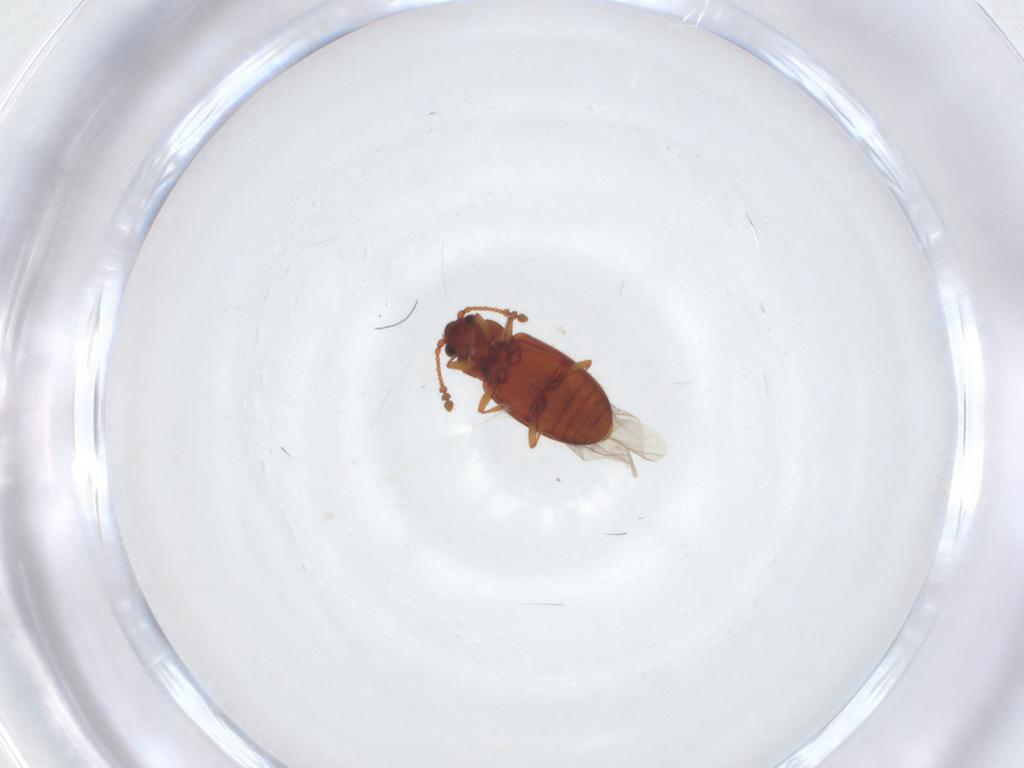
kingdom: Animalia
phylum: Arthropoda
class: Insecta
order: Coleoptera
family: Cryptophagidae
